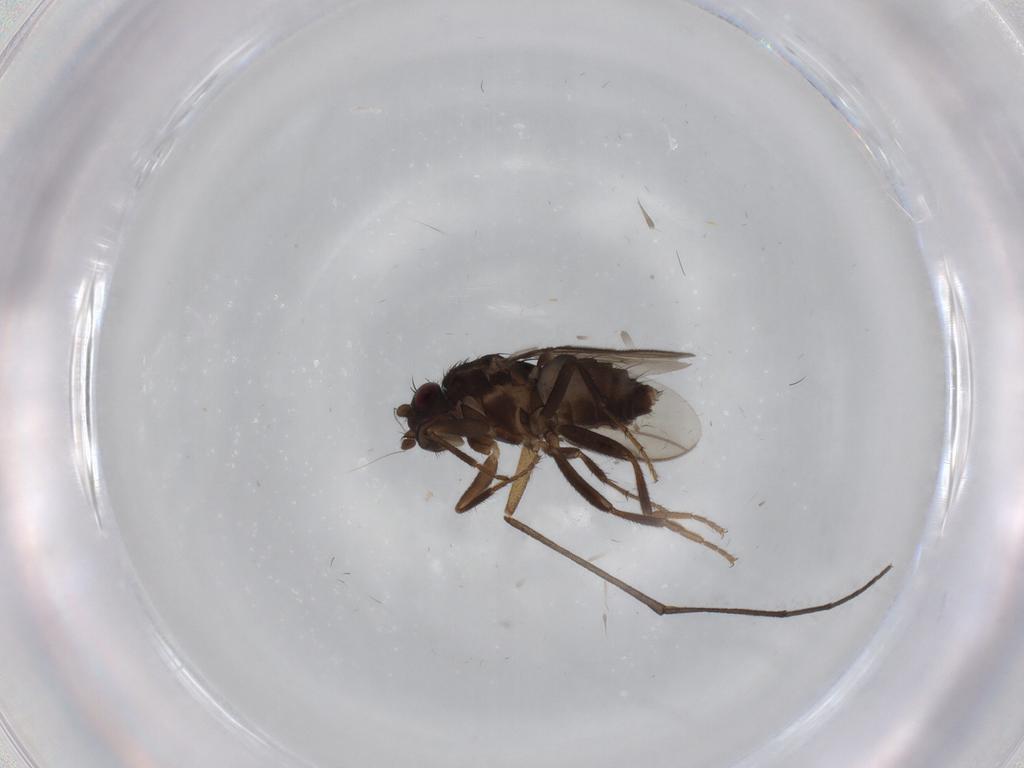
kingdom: Animalia
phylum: Arthropoda
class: Insecta
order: Diptera
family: Sphaeroceridae
